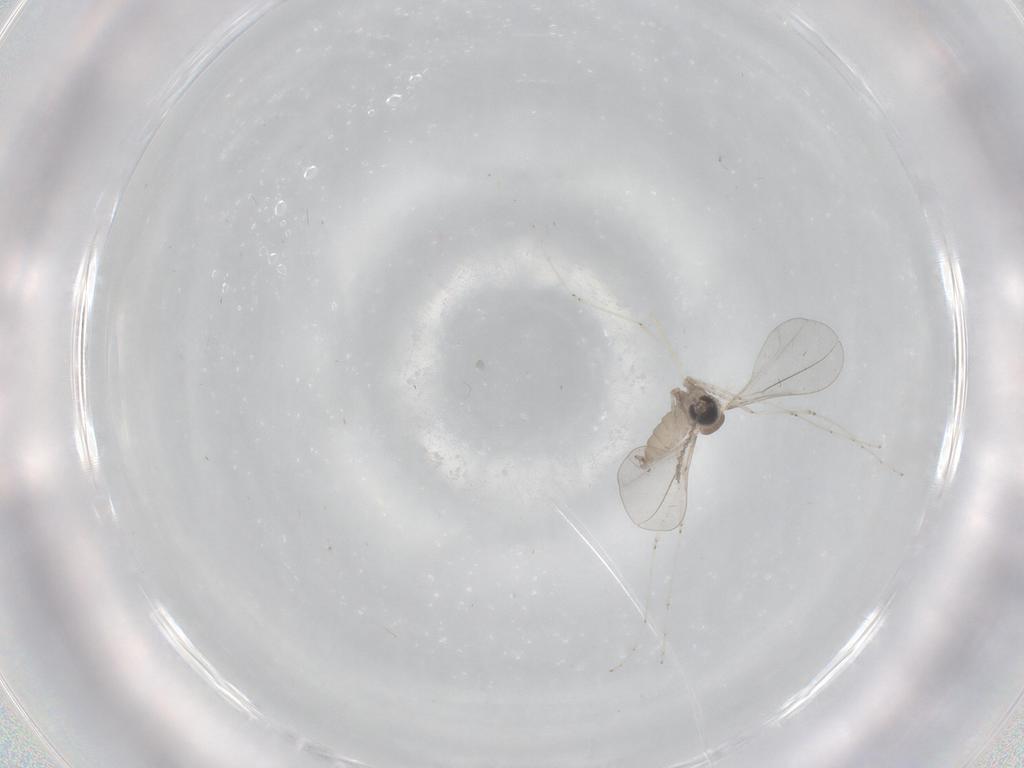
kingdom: Animalia
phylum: Arthropoda
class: Insecta
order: Diptera
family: Cecidomyiidae
